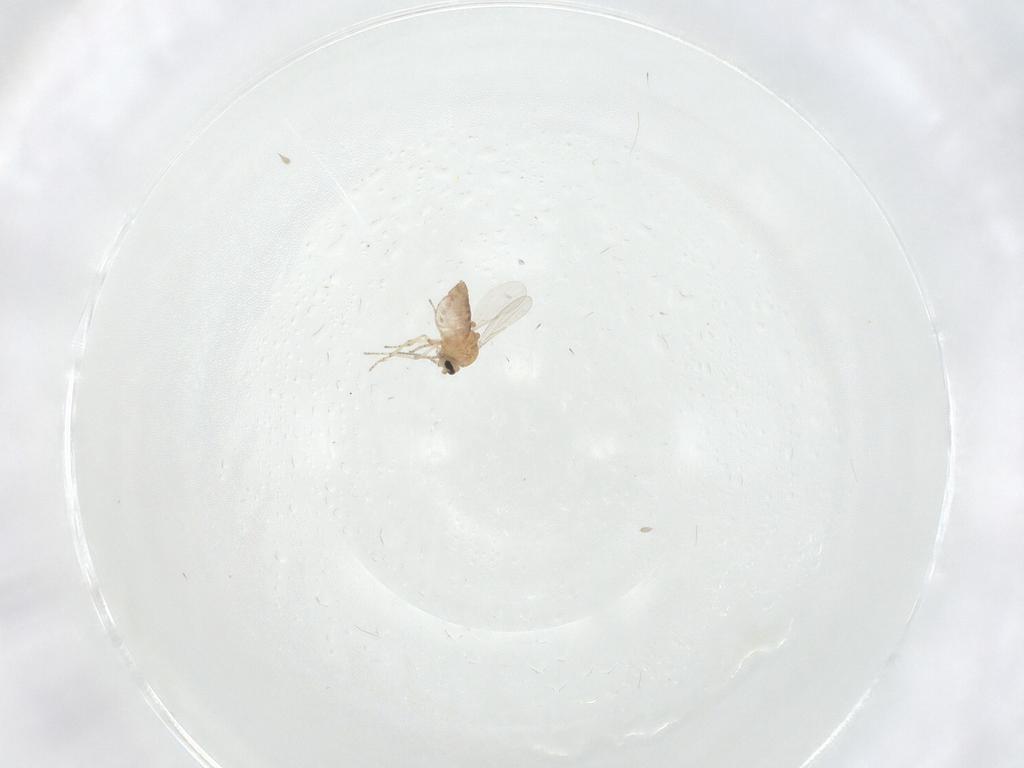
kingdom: Animalia
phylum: Arthropoda
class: Insecta
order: Diptera
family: Ceratopogonidae
